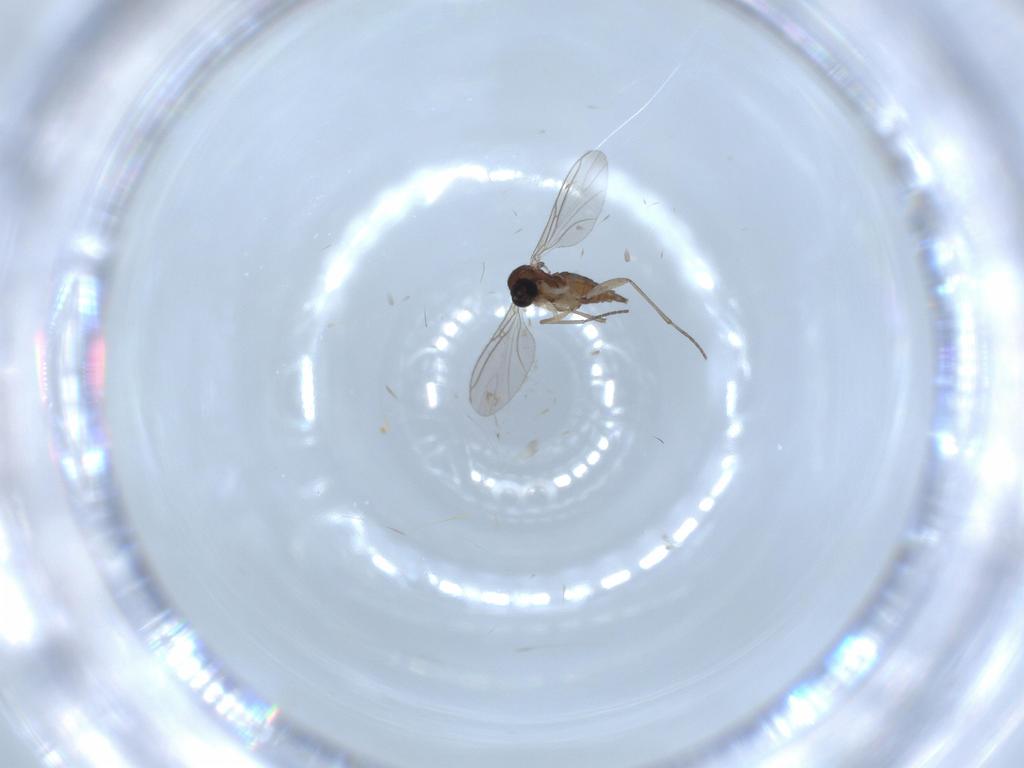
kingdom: Animalia
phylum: Arthropoda
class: Insecta
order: Diptera
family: Sciaridae
